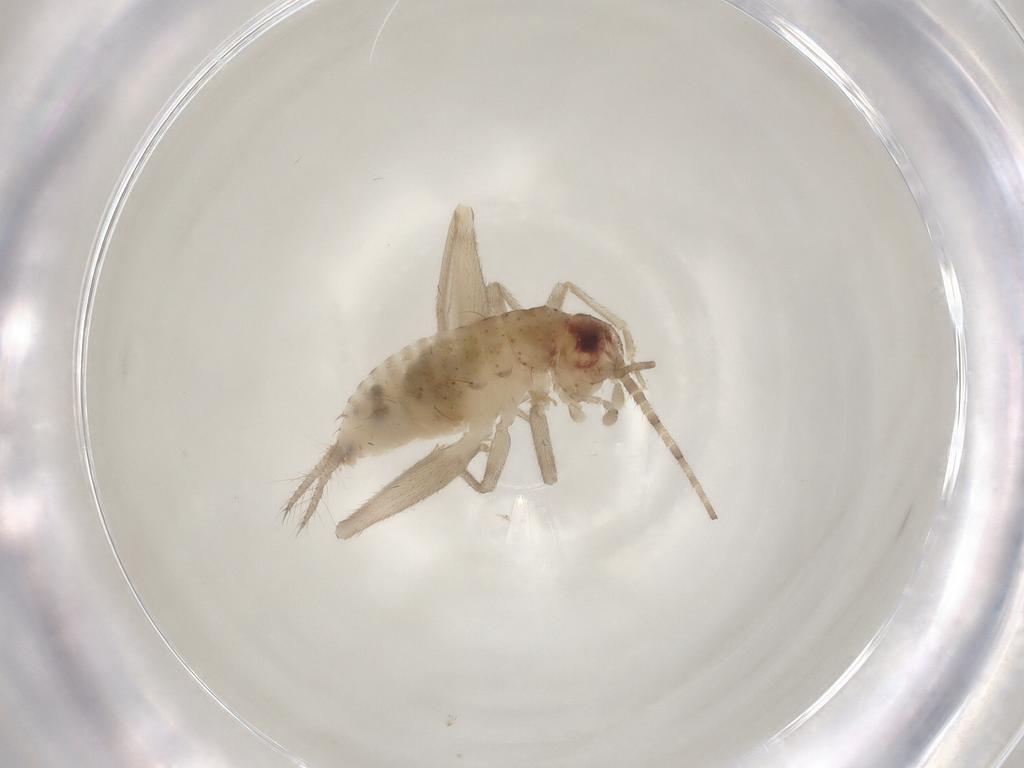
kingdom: Animalia
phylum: Arthropoda
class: Insecta
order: Orthoptera
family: Trigonidiidae
